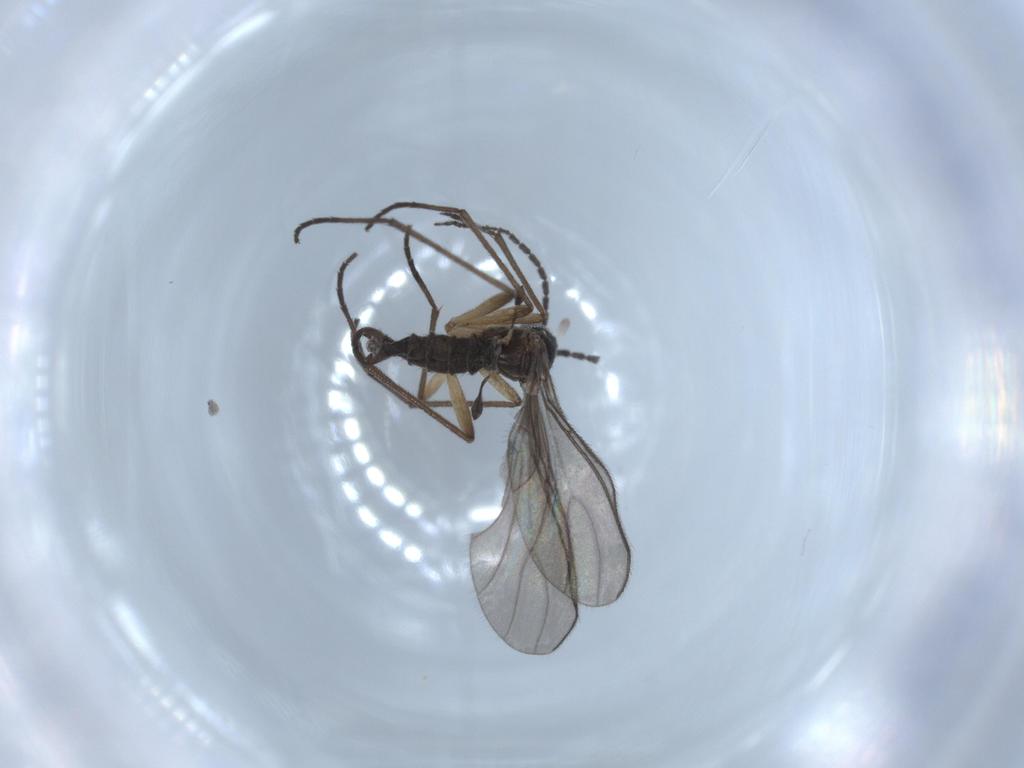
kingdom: Animalia
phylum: Arthropoda
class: Insecta
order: Diptera
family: Sciaridae
